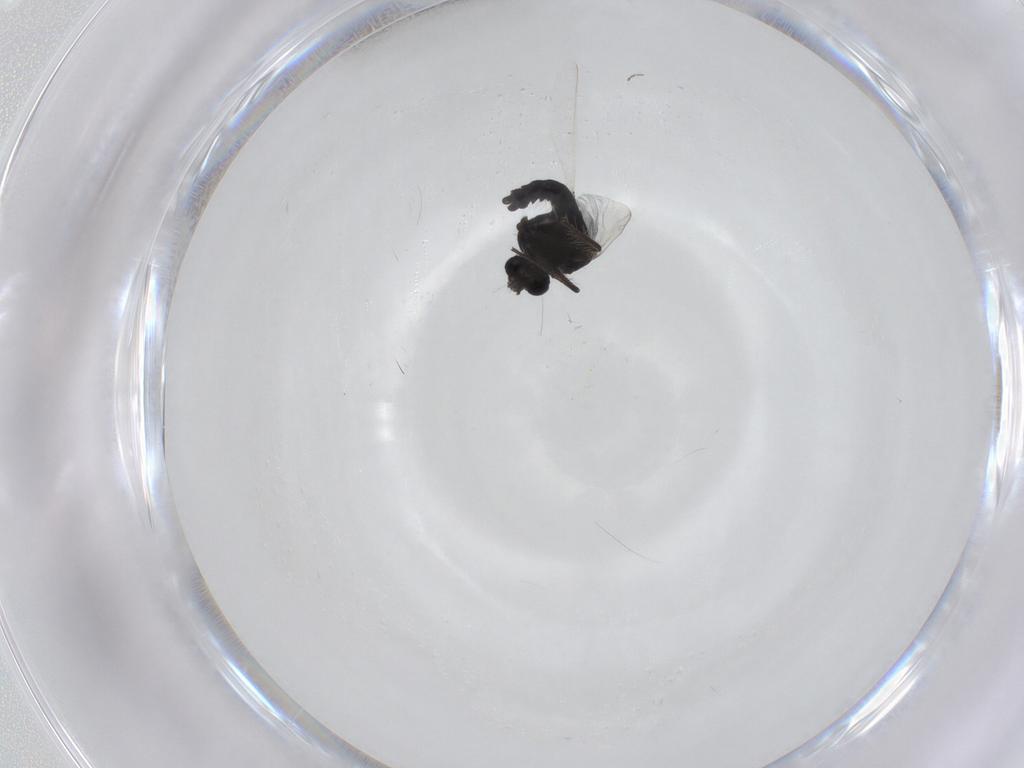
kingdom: Animalia
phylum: Arthropoda
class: Insecta
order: Diptera
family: Chironomidae
